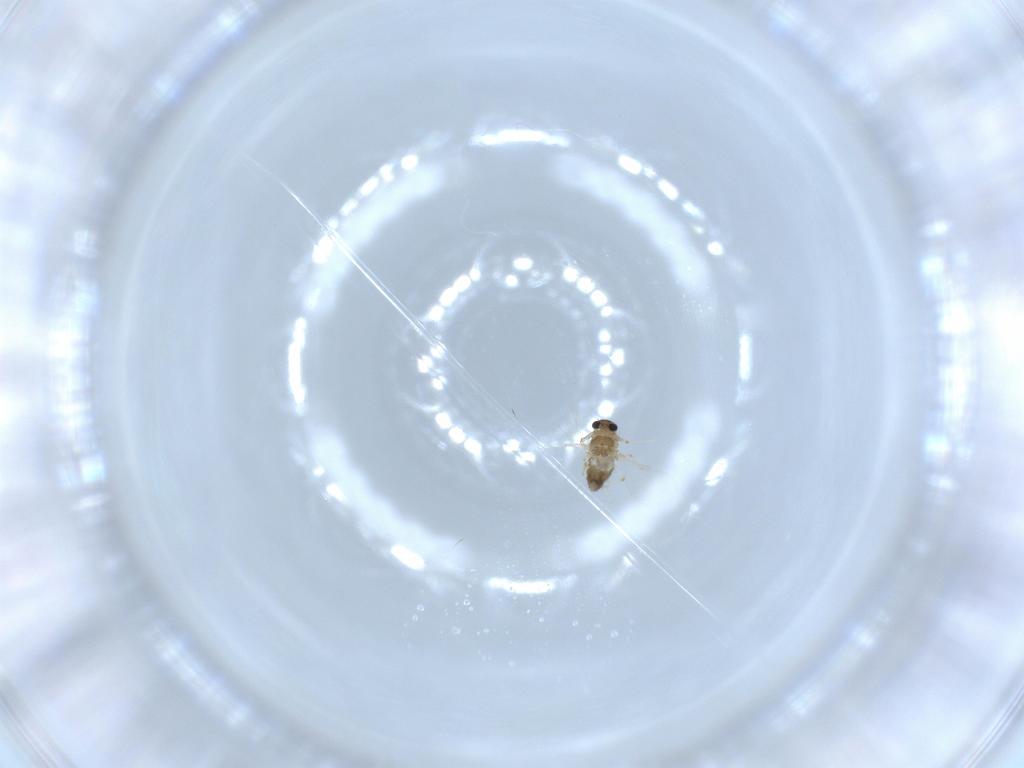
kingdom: Animalia
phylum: Arthropoda
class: Insecta
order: Diptera
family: Chironomidae
